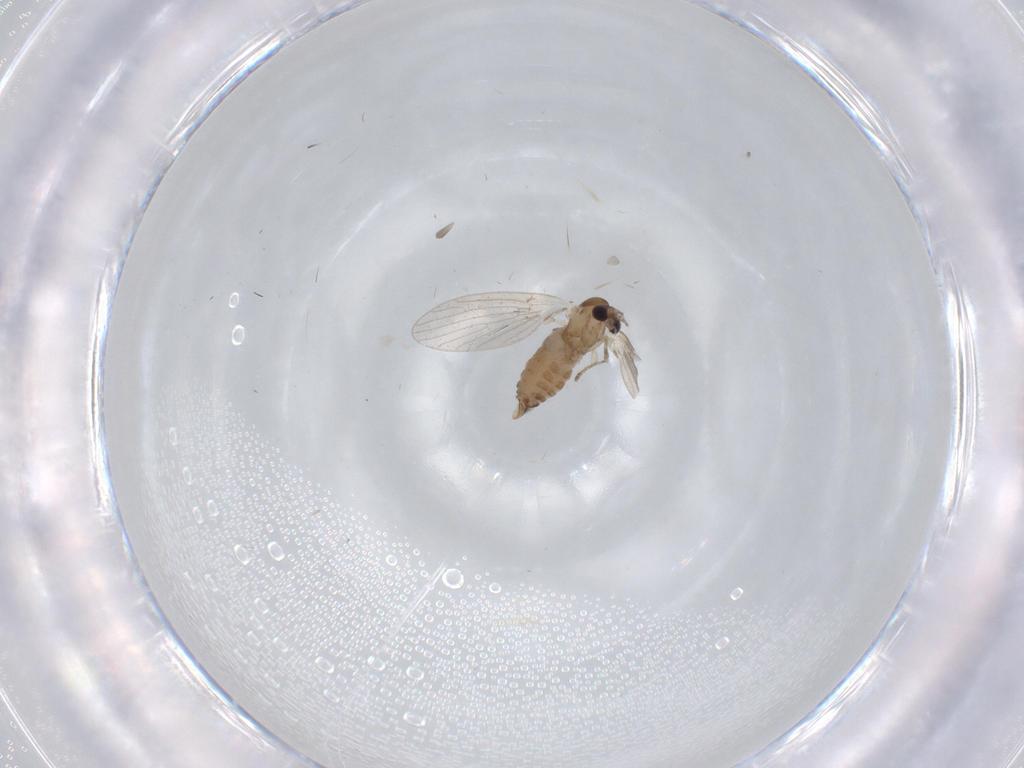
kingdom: Animalia
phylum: Arthropoda
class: Insecta
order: Diptera
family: Psychodidae
